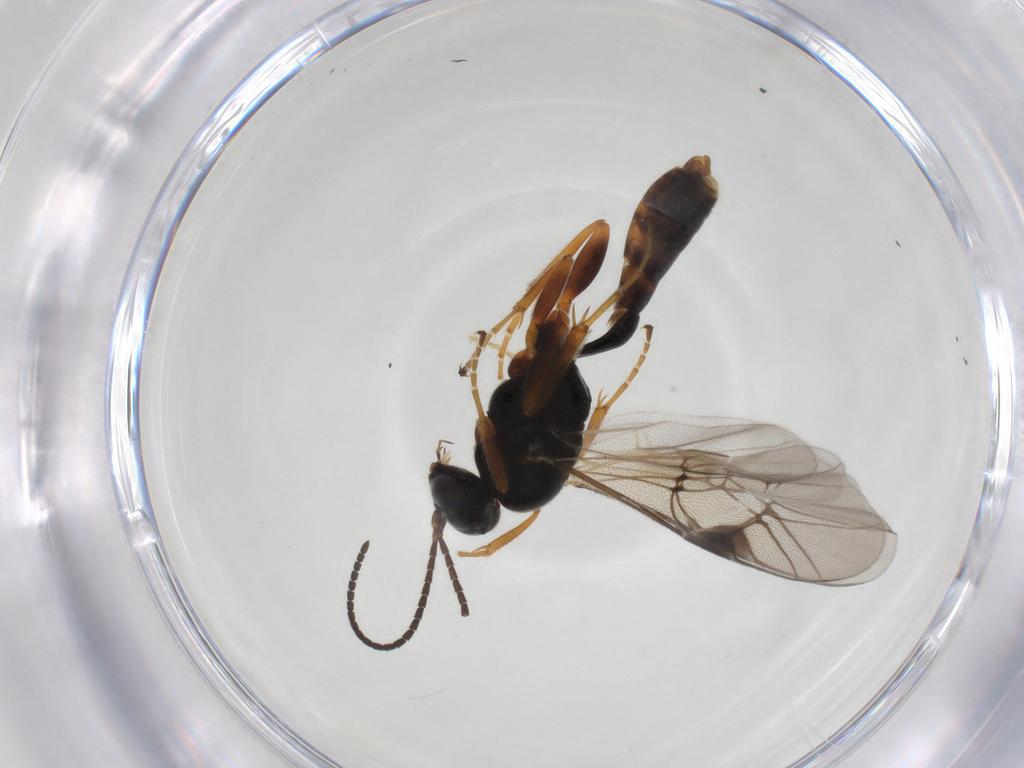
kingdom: Animalia
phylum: Arthropoda
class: Insecta
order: Hymenoptera
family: Ichneumonidae
